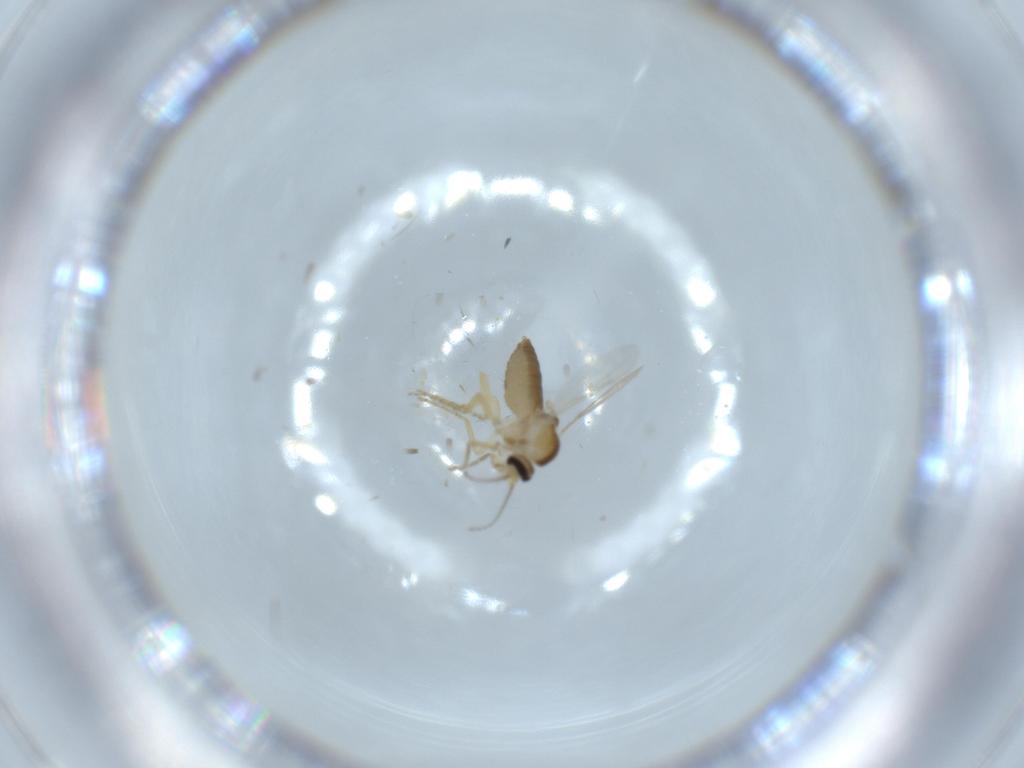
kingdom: Animalia
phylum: Arthropoda
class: Insecta
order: Diptera
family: Ceratopogonidae
